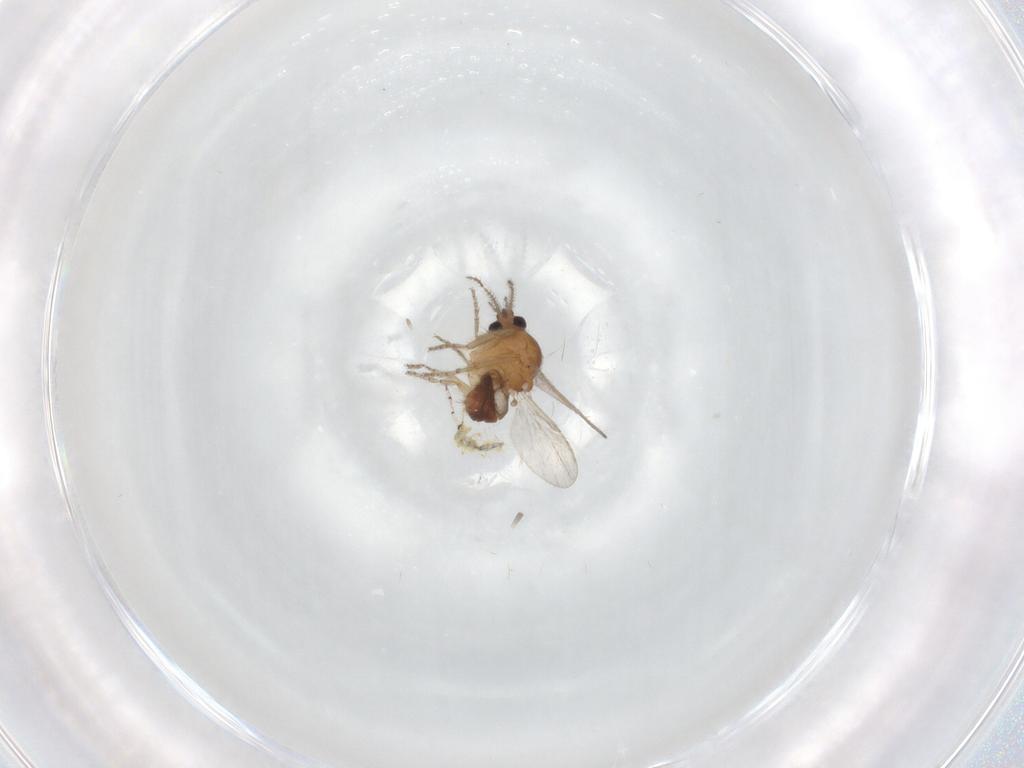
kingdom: Animalia
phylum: Arthropoda
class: Insecta
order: Diptera
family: Ceratopogonidae
